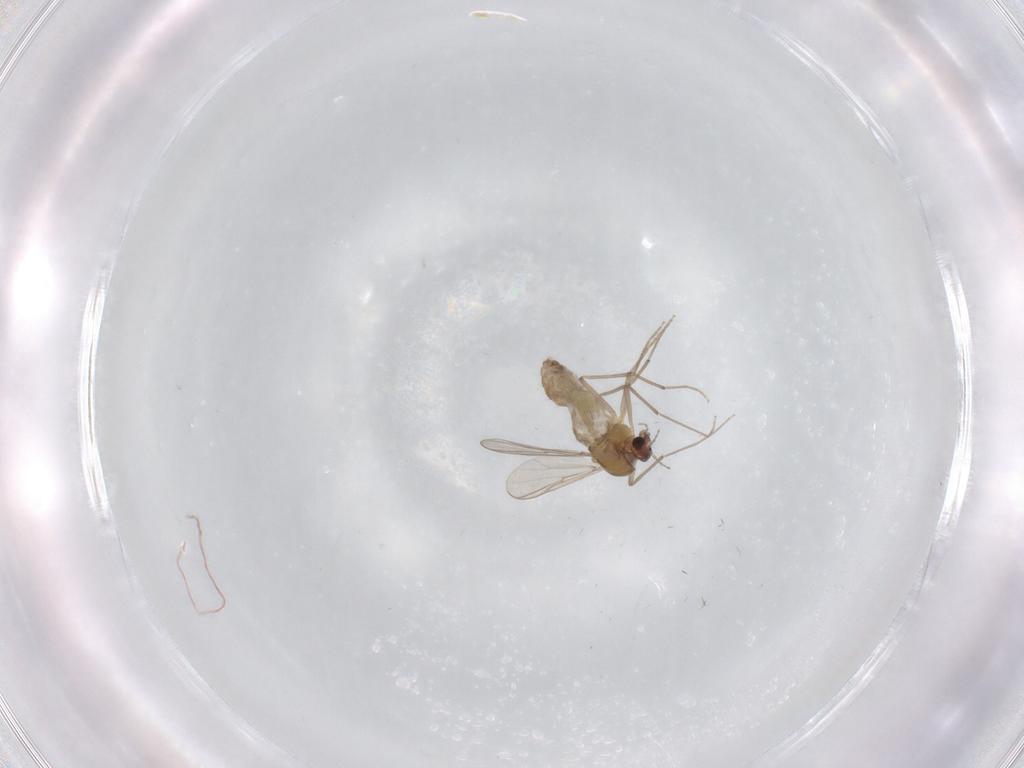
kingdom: Animalia
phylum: Arthropoda
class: Insecta
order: Diptera
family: Chironomidae
